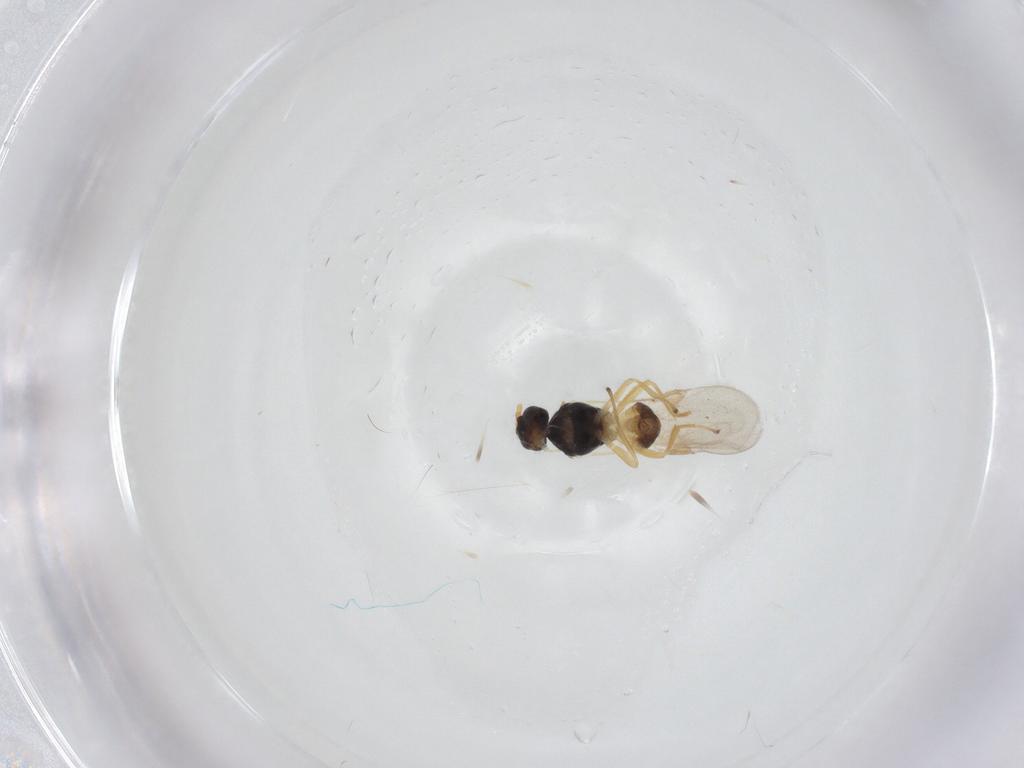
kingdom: Animalia
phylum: Arthropoda
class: Insecta
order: Hymenoptera
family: Braconidae
